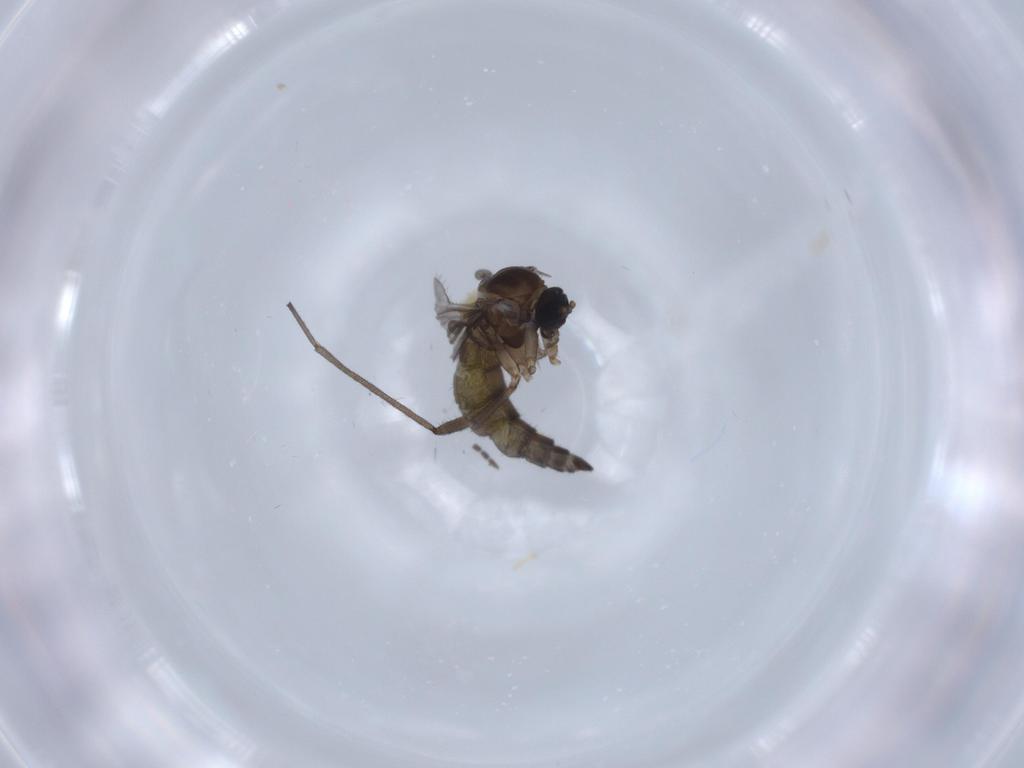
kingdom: Animalia
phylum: Arthropoda
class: Insecta
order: Diptera
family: Sciaridae
